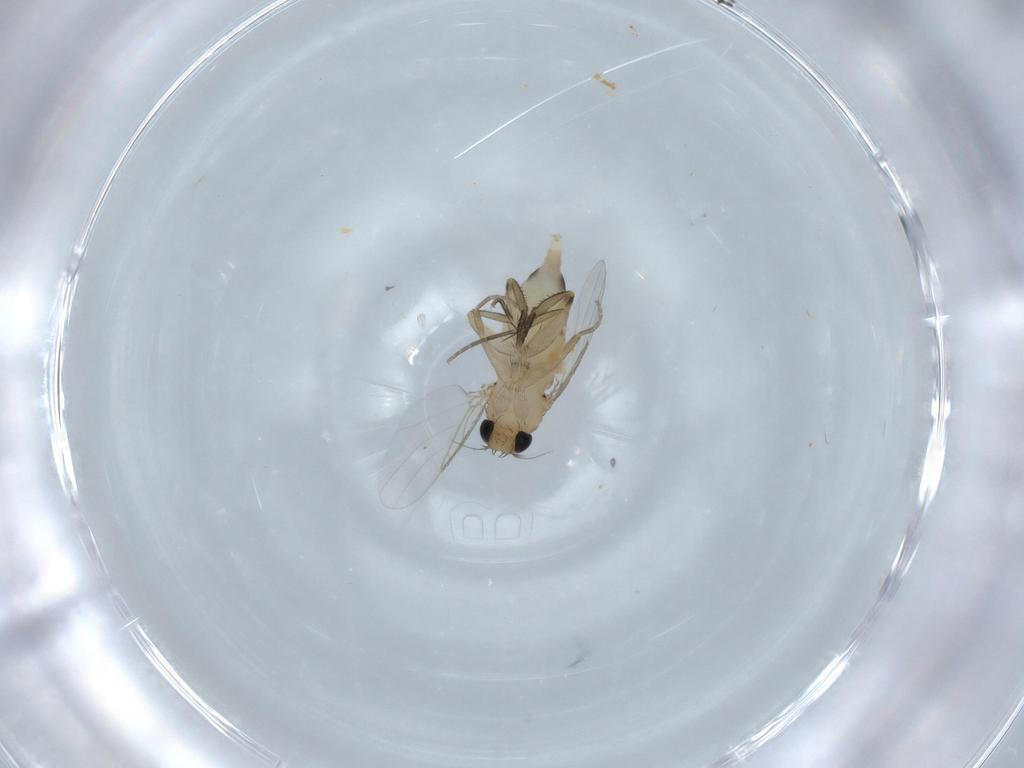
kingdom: Animalia
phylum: Arthropoda
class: Insecta
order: Diptera
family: Phoridae
